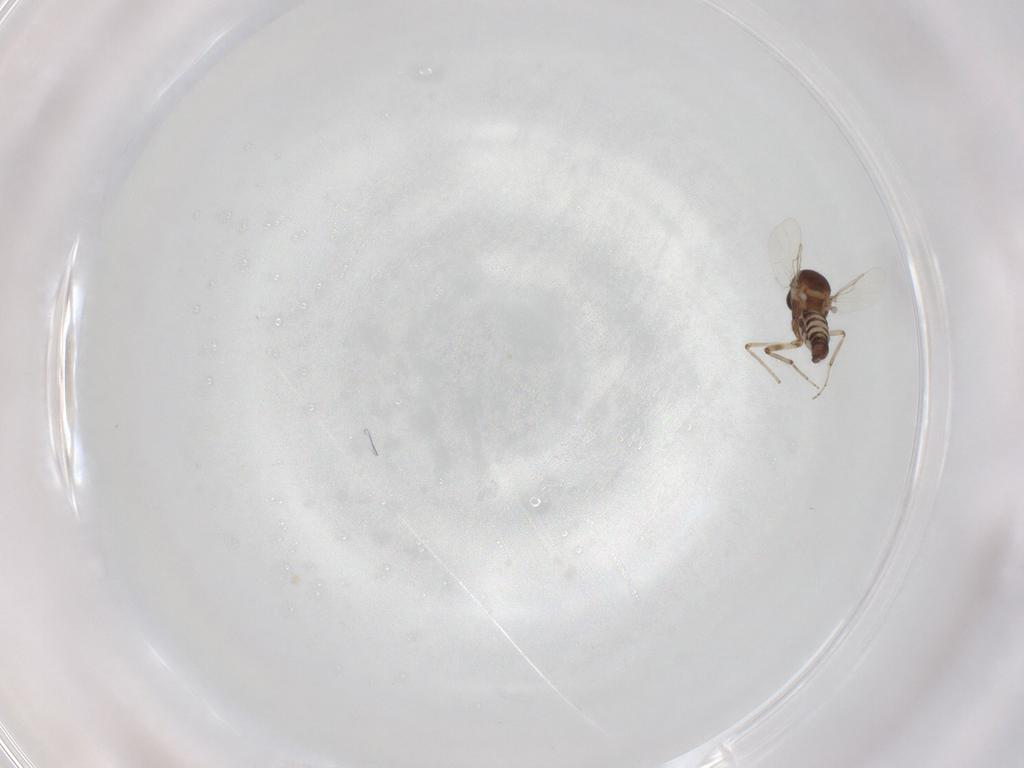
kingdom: Animalia
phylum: Arthropoda
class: Insecta
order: Diptera
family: Ceratopogonidae
